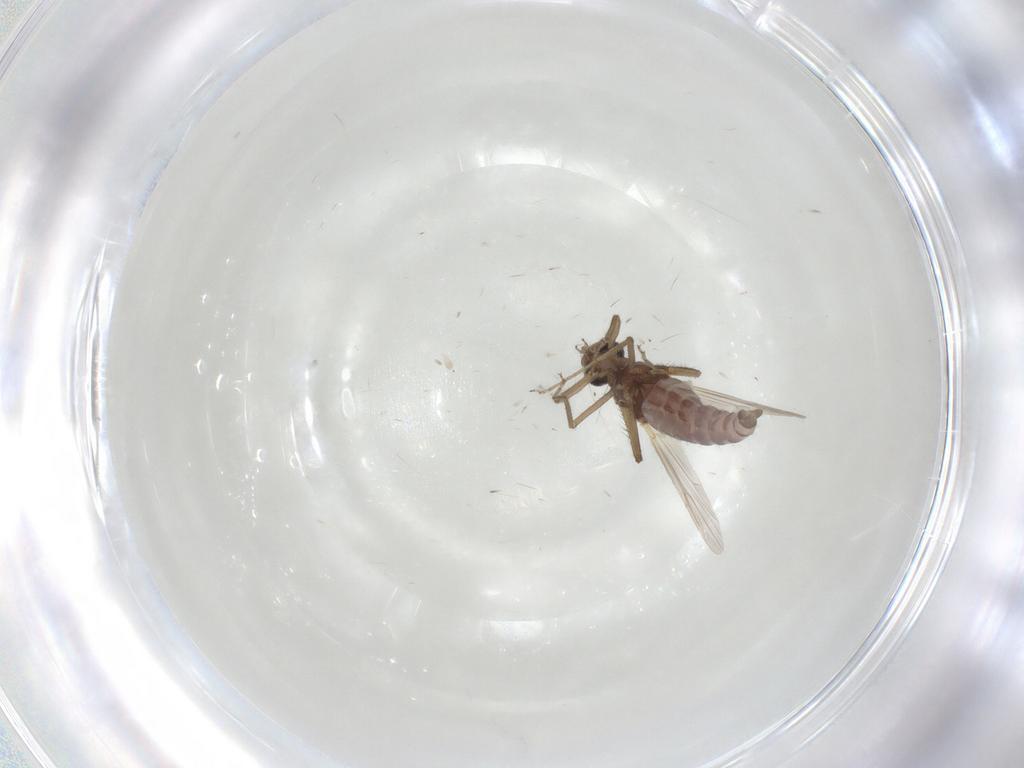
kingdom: Animalia
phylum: Arthropoda
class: Insecta
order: Diptera
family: Ceratopogonidae
